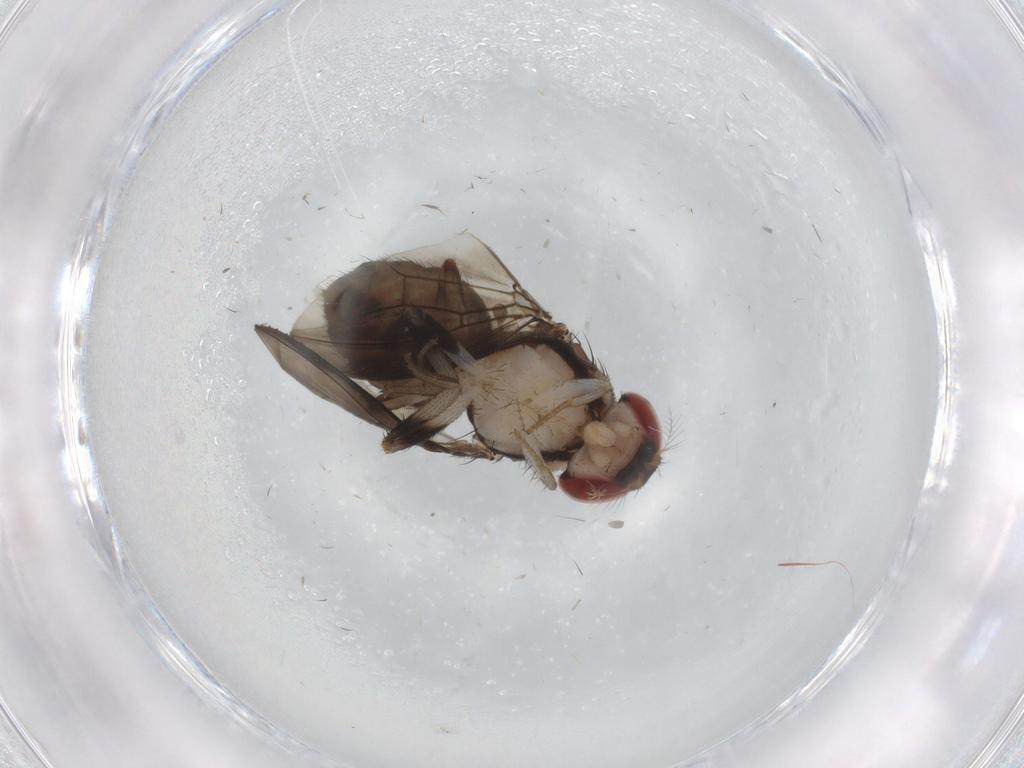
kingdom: Animalia
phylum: Arthropoda
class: Insecta
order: Diptera
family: Drosophilidae
